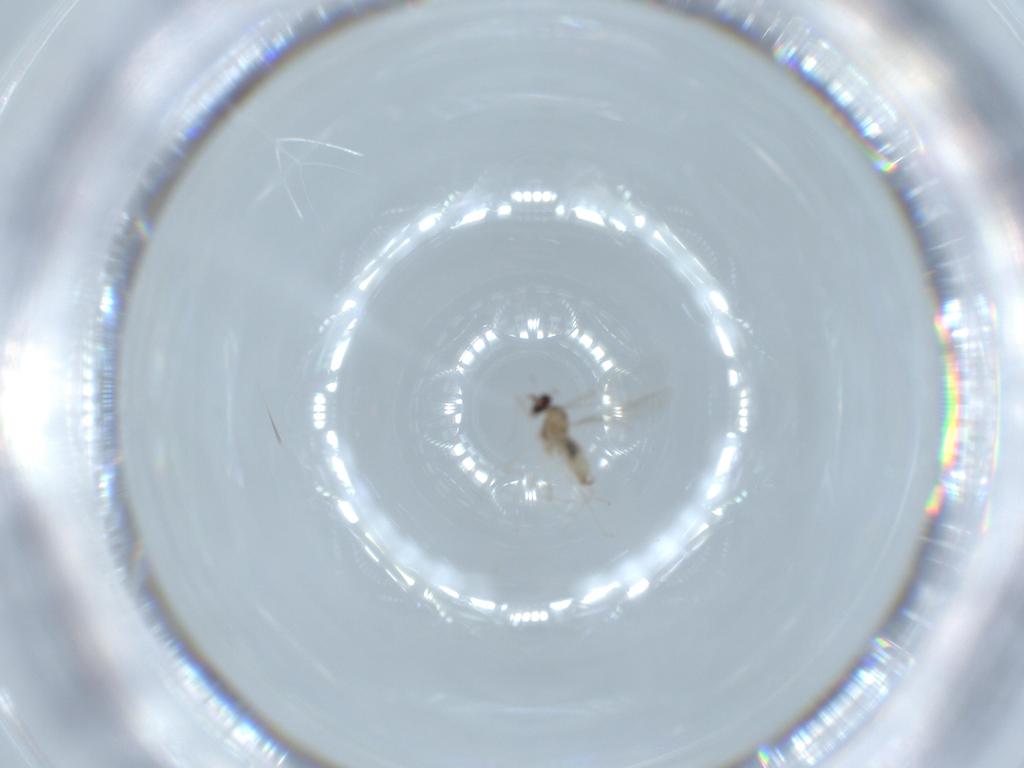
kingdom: Animalia
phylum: Arthropoda
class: Insecta
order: Diptera
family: Cecidomyiidae
